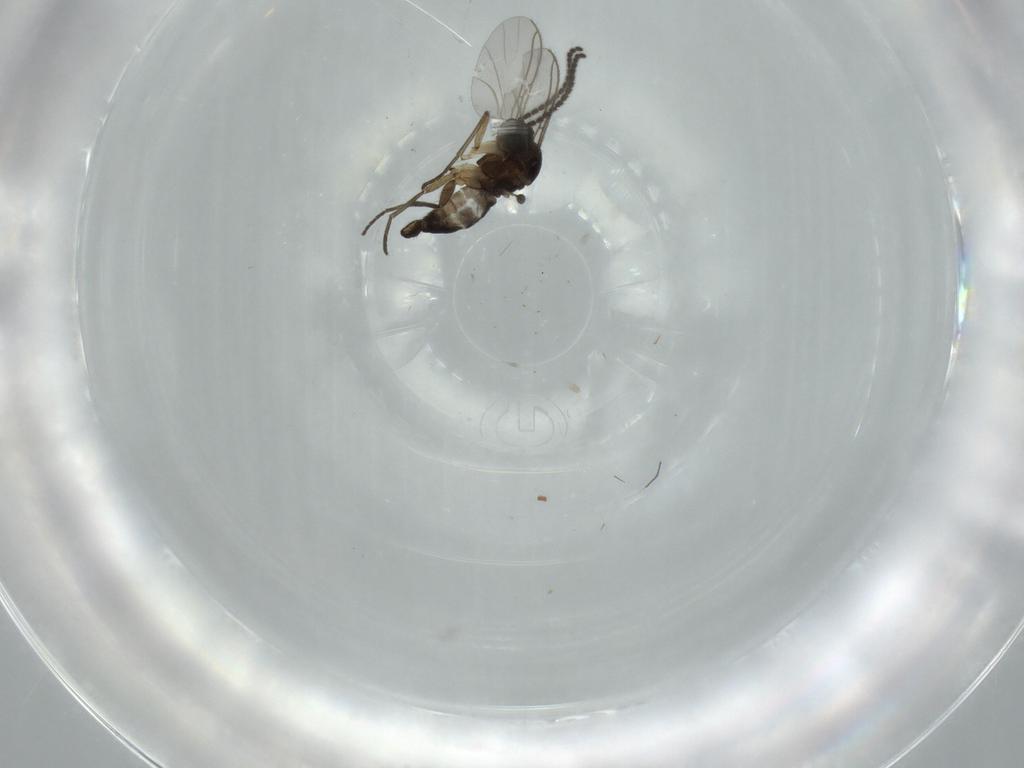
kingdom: Animalia
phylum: Arthropoda
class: Insecta
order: Diptera
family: Sciaridae
